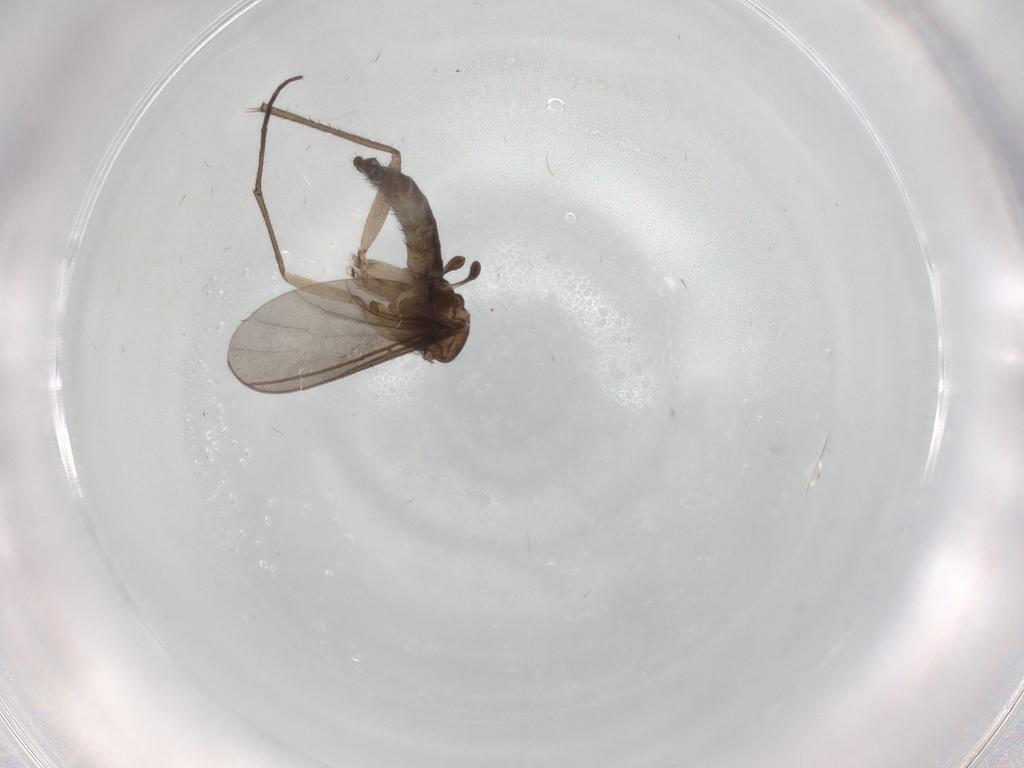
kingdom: Animalia
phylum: Arthropoda
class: Insecta
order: Diptera
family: Sciaridae
